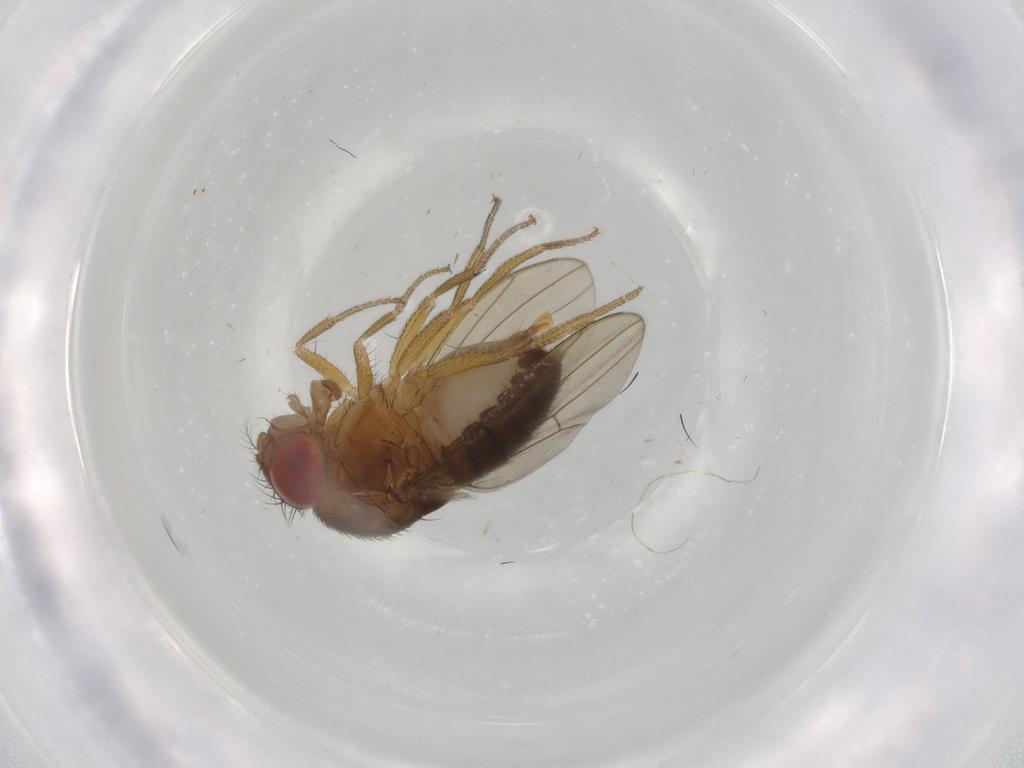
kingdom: Animalia
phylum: Arthropoda
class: Insecta
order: Diptera
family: Drosophilidae
